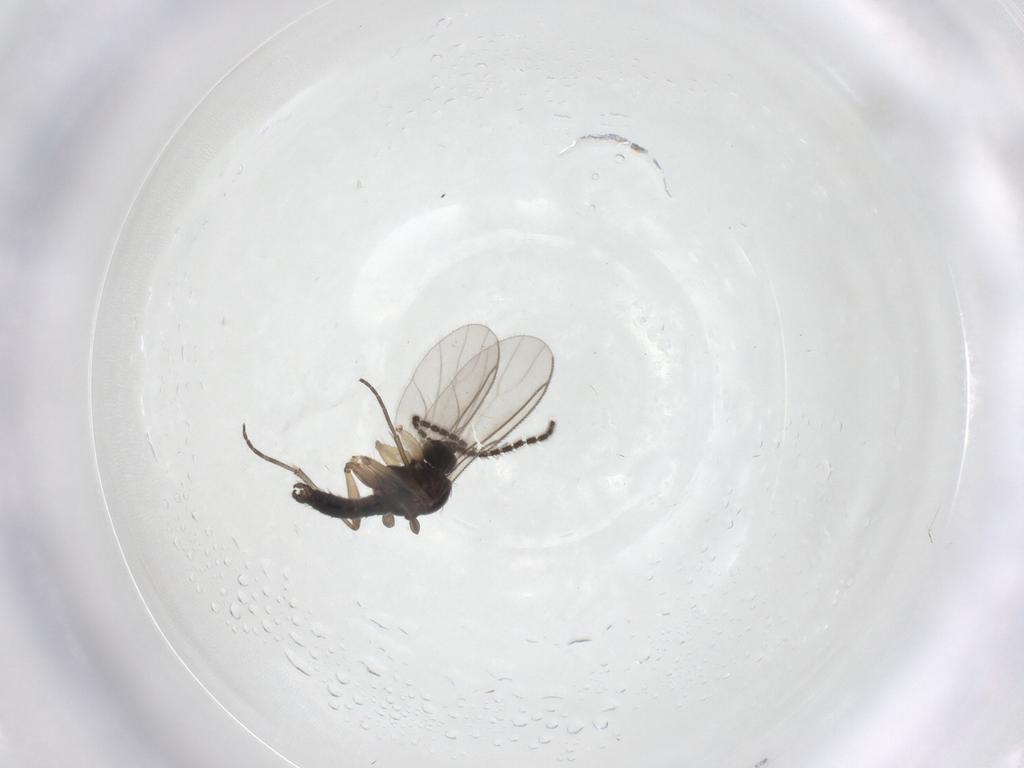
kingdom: Animalia
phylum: Arthropoda
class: Insecta
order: Diptera
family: Sciaridae
